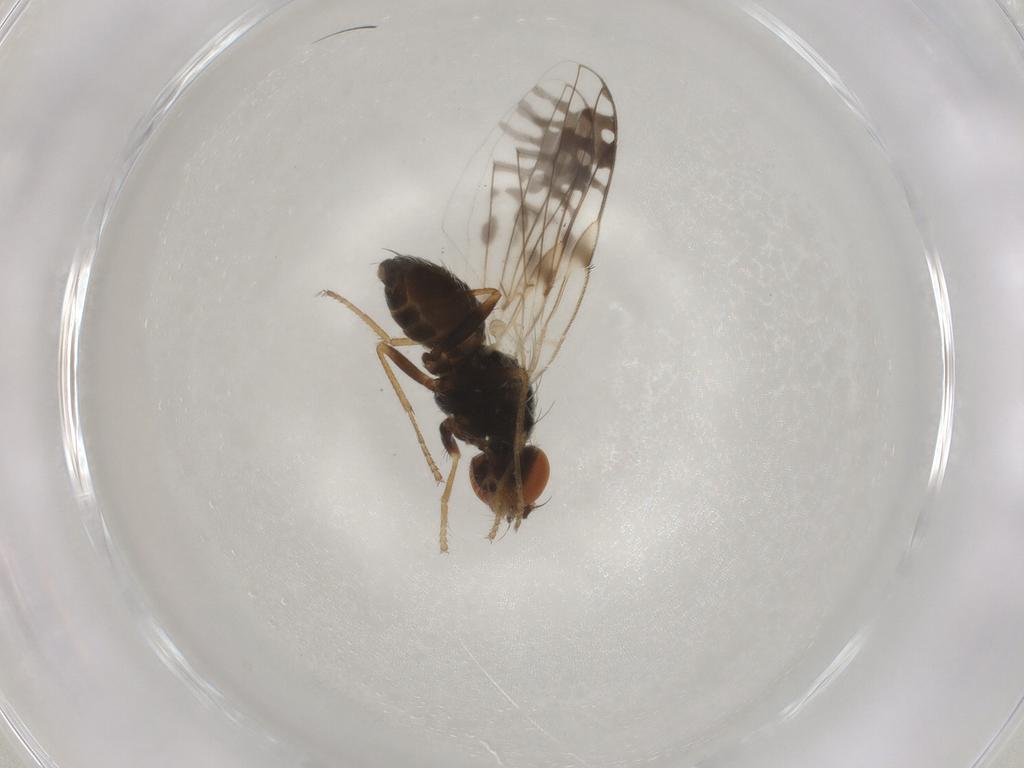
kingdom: Animalia
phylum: Arthropoda
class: Insecta
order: Diptera
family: Chironomidae
